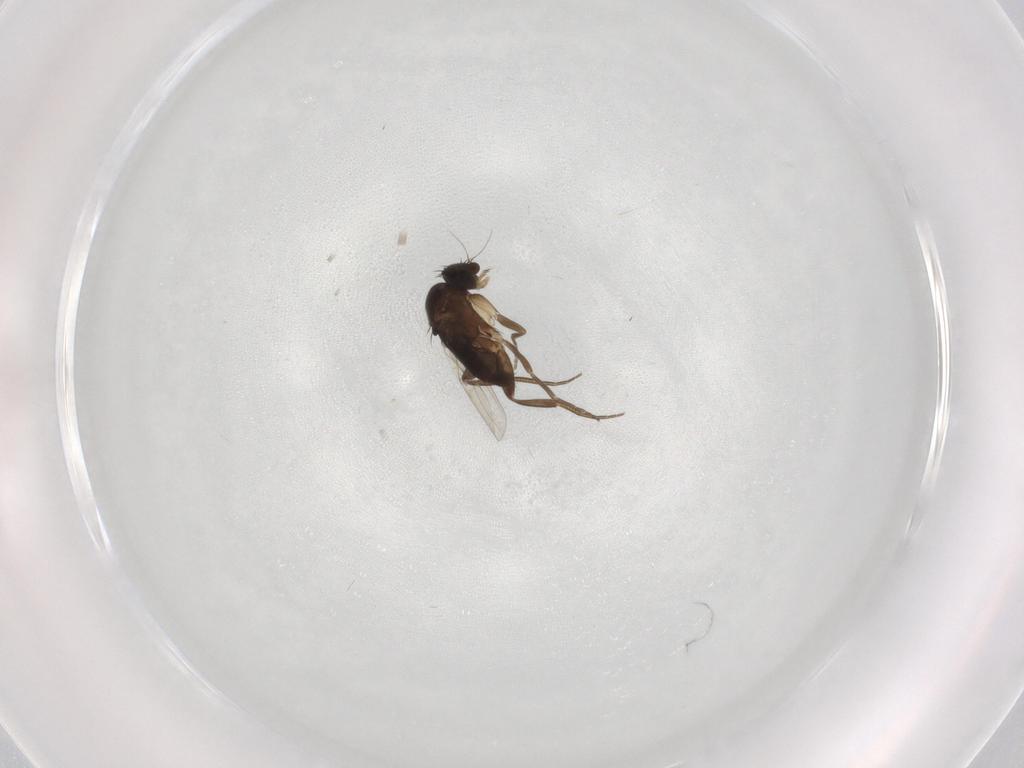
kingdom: Animalia
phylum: Arthropoda
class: Insecta
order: Diptera
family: Phoridae
